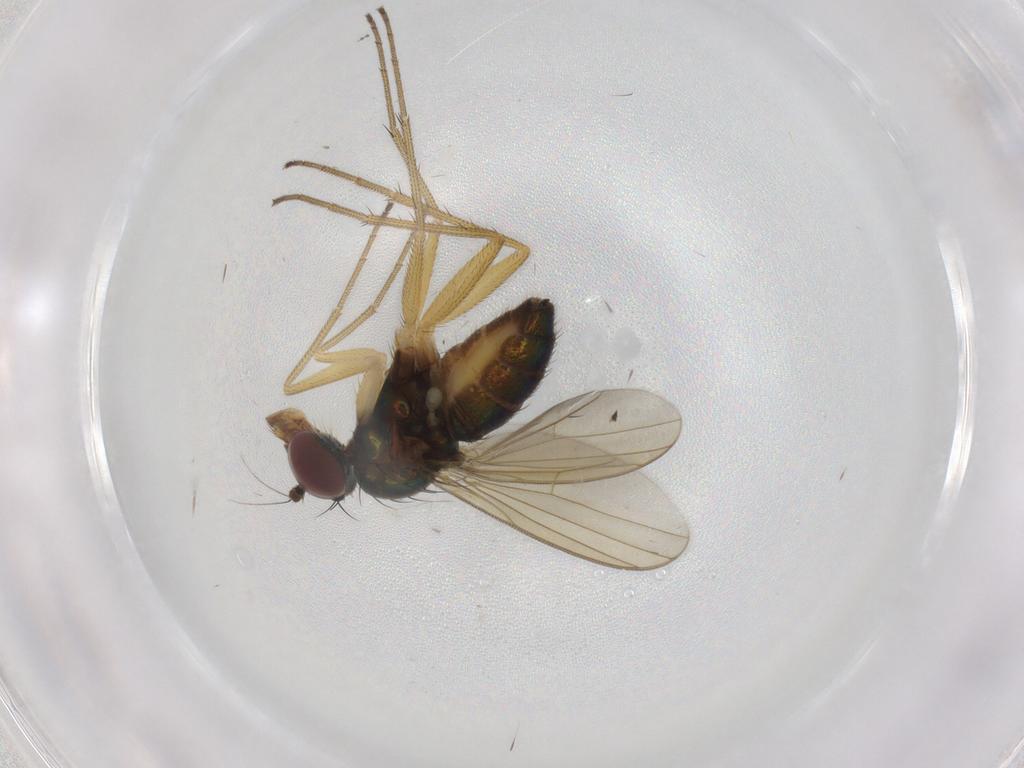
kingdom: Animalia
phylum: Arthropoda
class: Insecta
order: Diptera
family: Dolichopodidae
